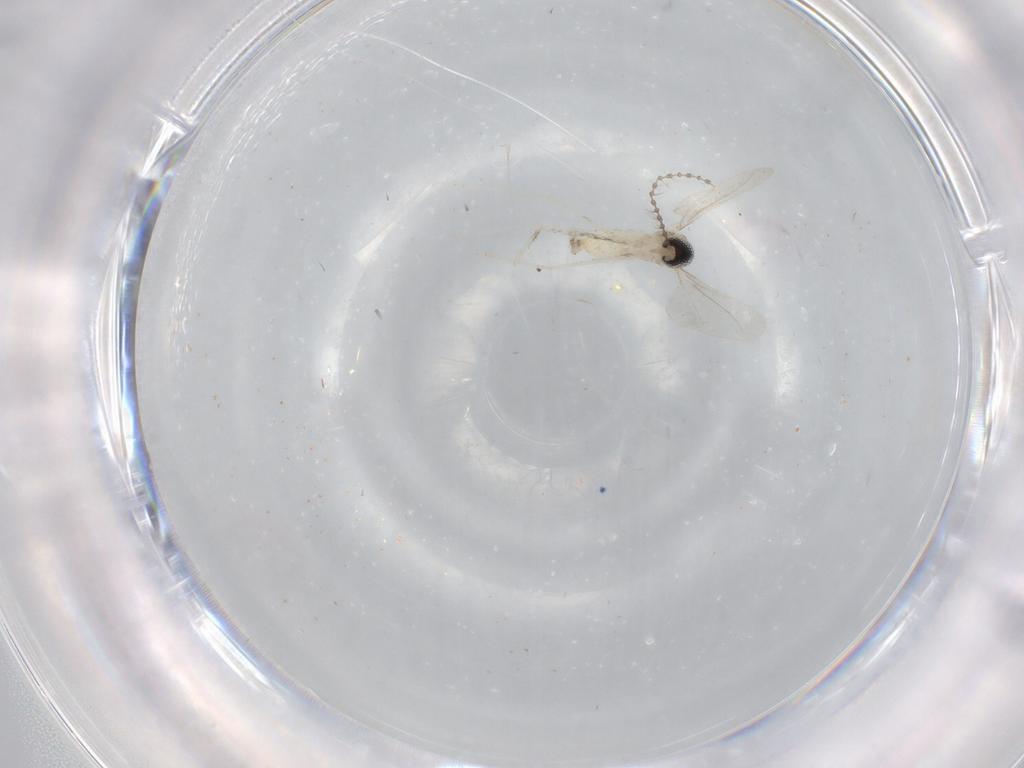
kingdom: Animalia
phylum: Arthropoda
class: Insecta
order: Diptera
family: Cecidomyiidae
